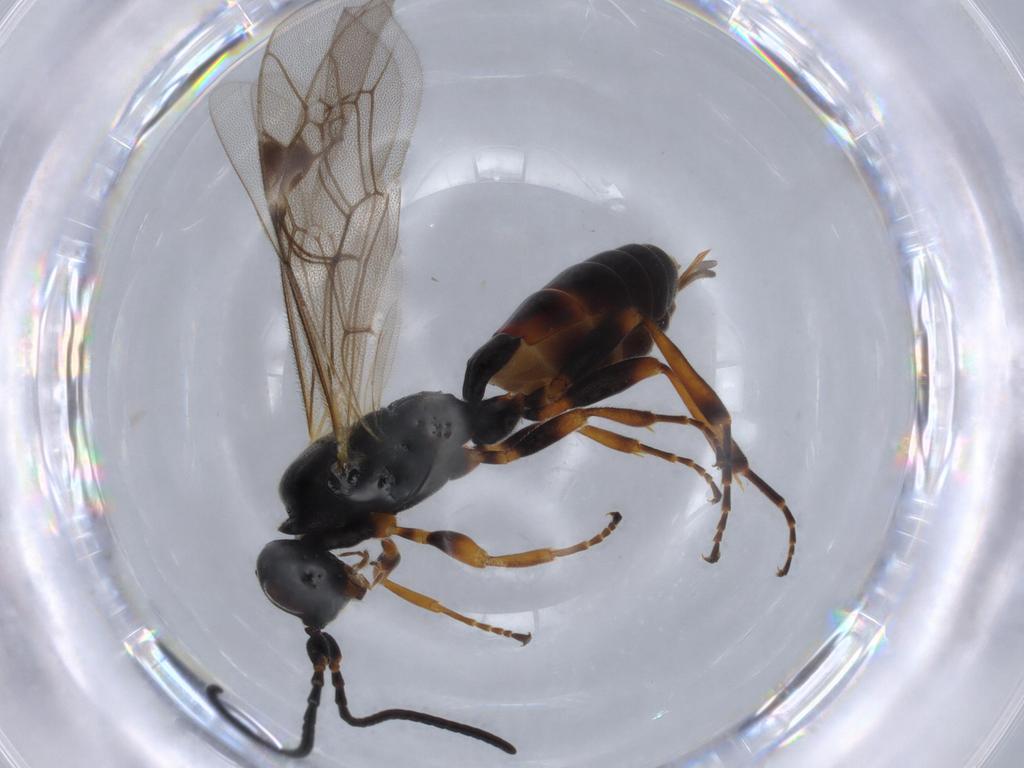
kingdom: Animalia
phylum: Arthropoda
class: Insecta
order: Hymenoptera
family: Ichneumonidae
